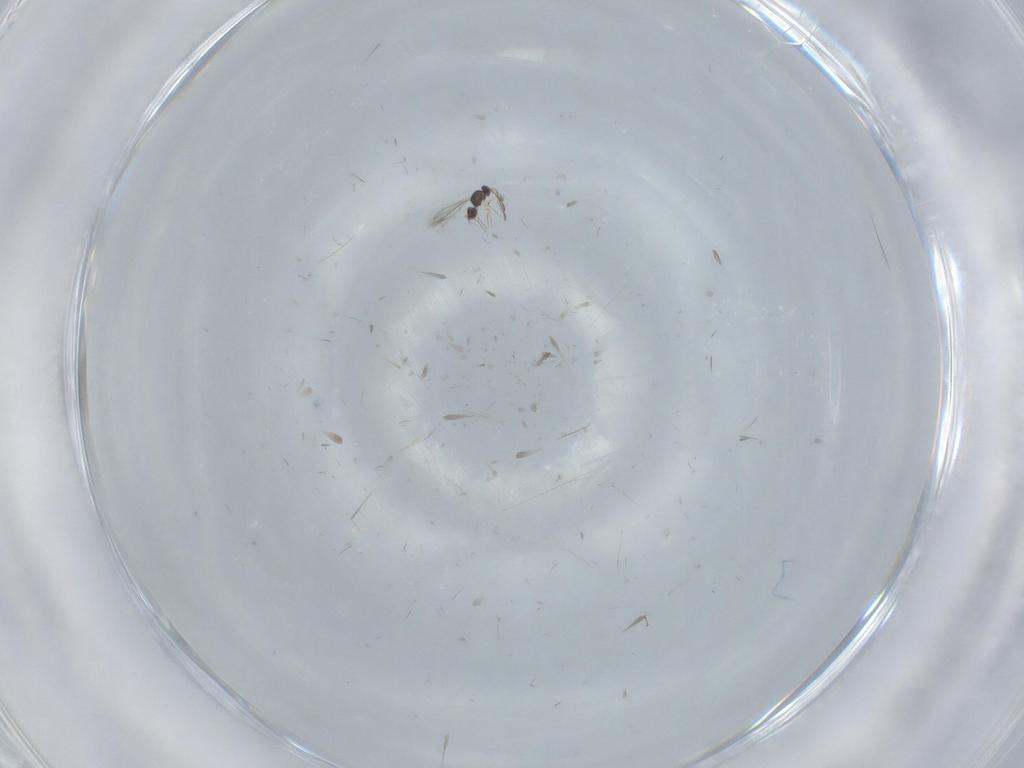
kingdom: Animalia
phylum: Arthropoda
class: Insecta
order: Hymenoptera
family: Mymaridae
